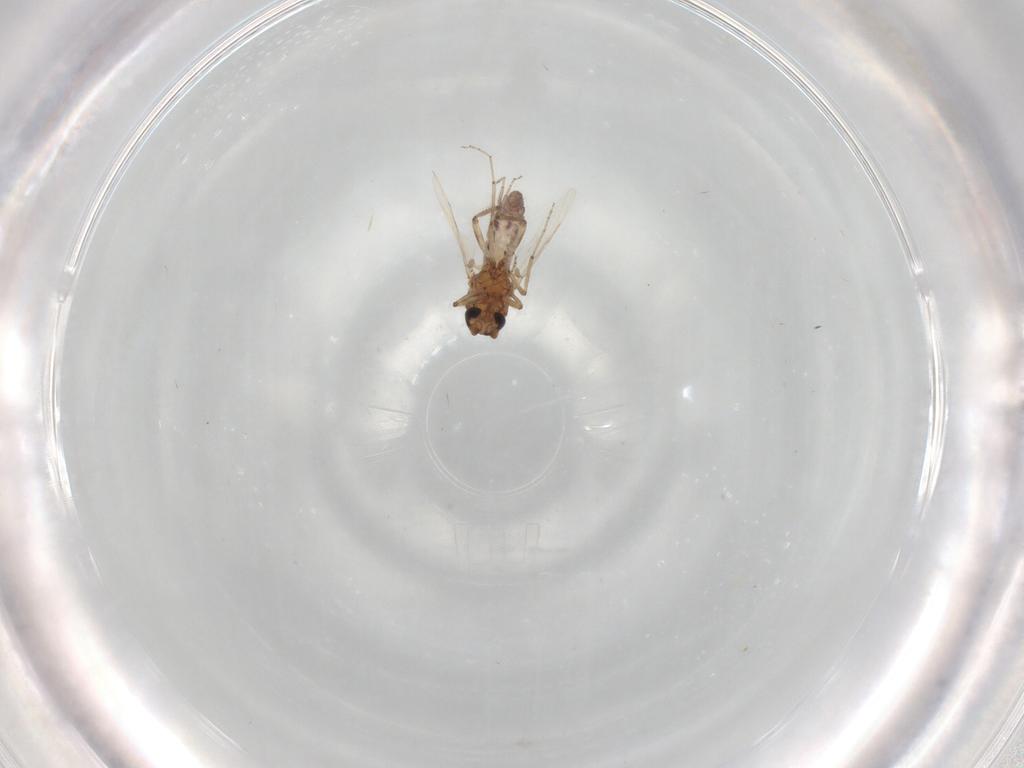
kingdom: Animalia
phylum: Arthropoda
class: Insecta
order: Diptera
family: Ceratopogonidae
